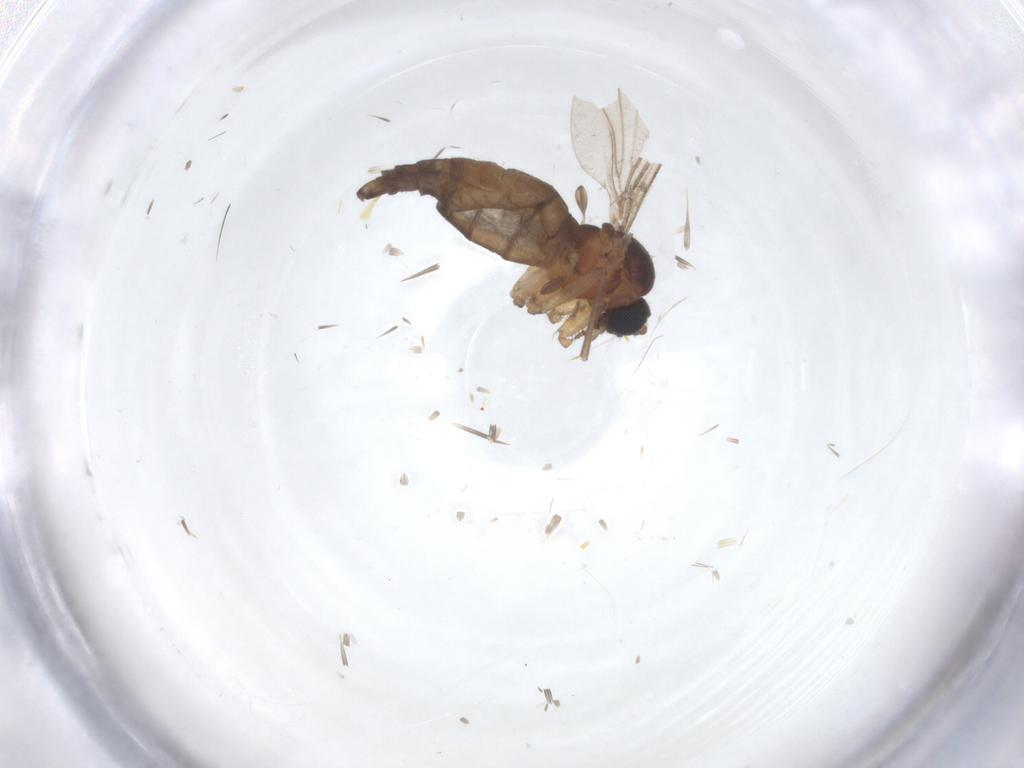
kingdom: Animalia
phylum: Arthropoda
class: Insecta
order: Diptera
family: Sciaridae
